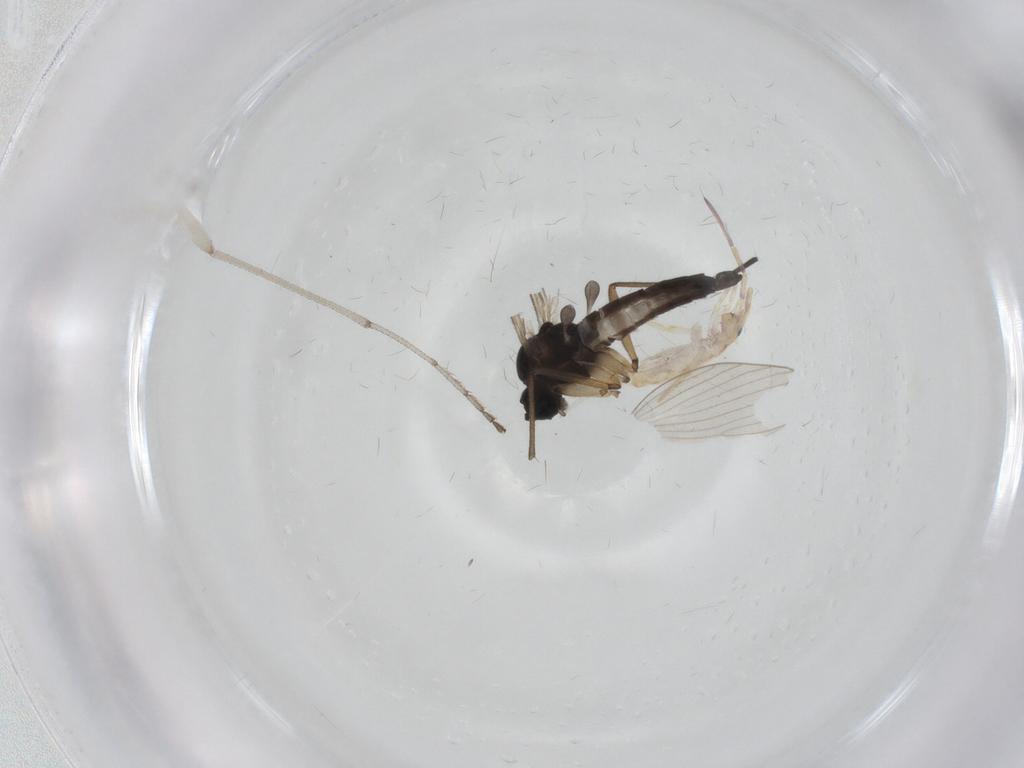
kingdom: Animalia
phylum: Arthropoda
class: Insecta
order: Diptera
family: Sciaridae
